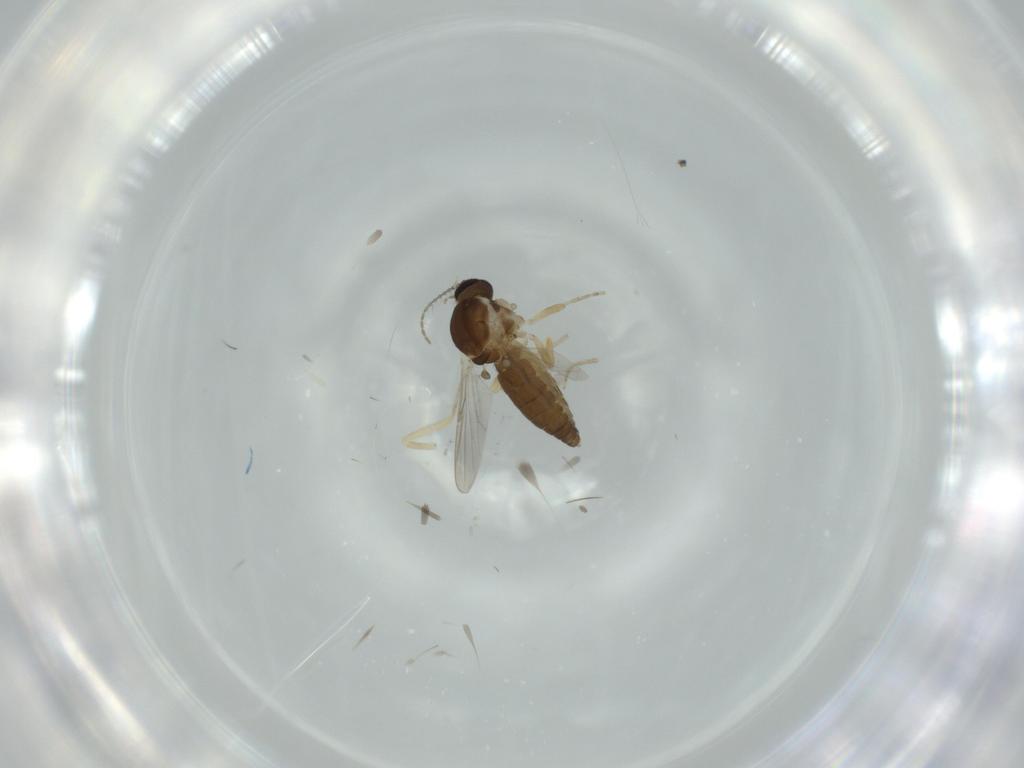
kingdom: Animalia
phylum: Arthropoda
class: Insecta
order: Diptera
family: Ceratopogonidae
